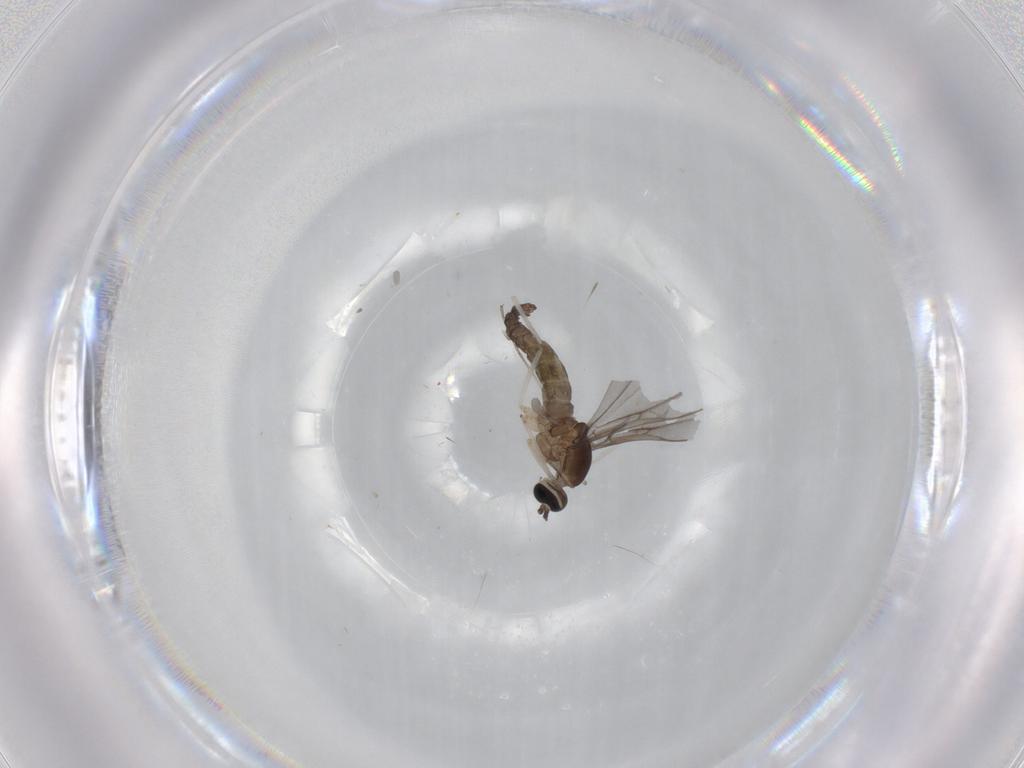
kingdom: Animalia
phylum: Arthropoda
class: Insecta
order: Diptera
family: Cecidomyiidae
